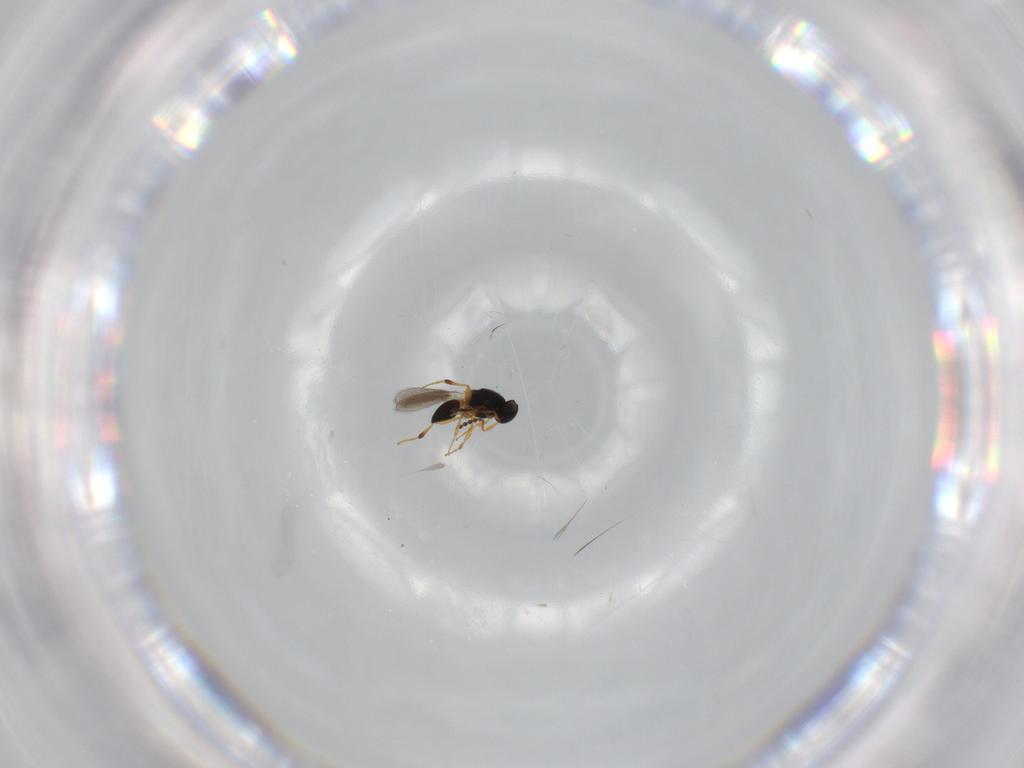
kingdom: Animalia
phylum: Arthropoda
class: Insecta
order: Hymenoptera
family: Platygastridae
